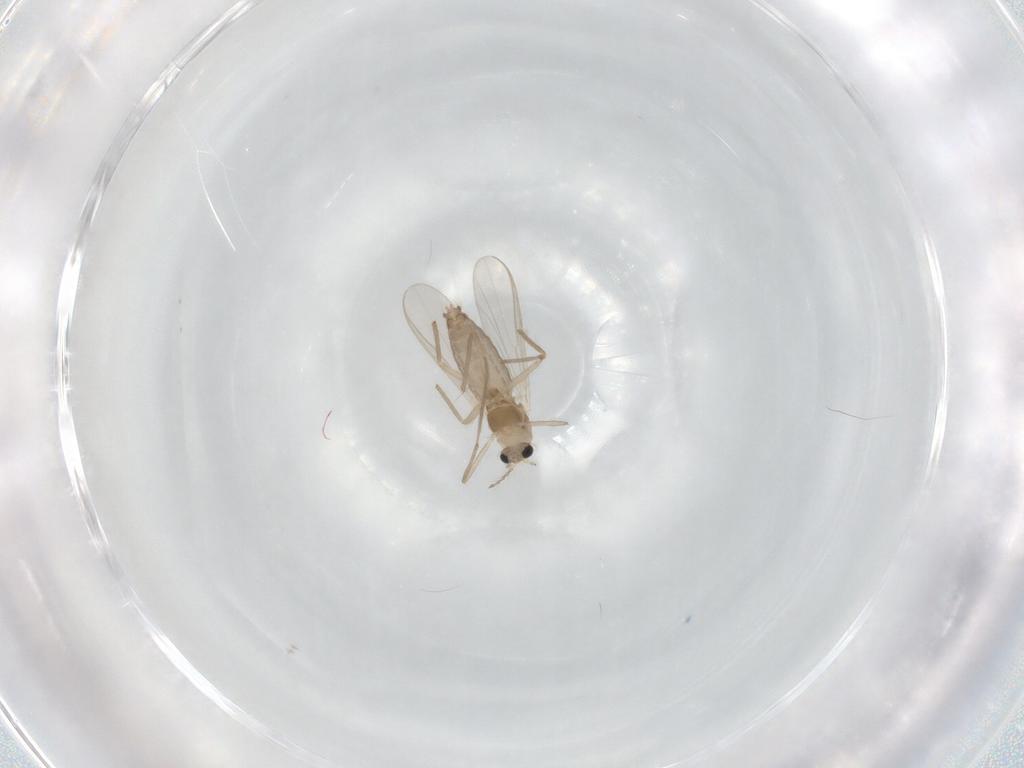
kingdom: Animalia
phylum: Arthropoda
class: Insecta
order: Diptera
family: Chironomidae
